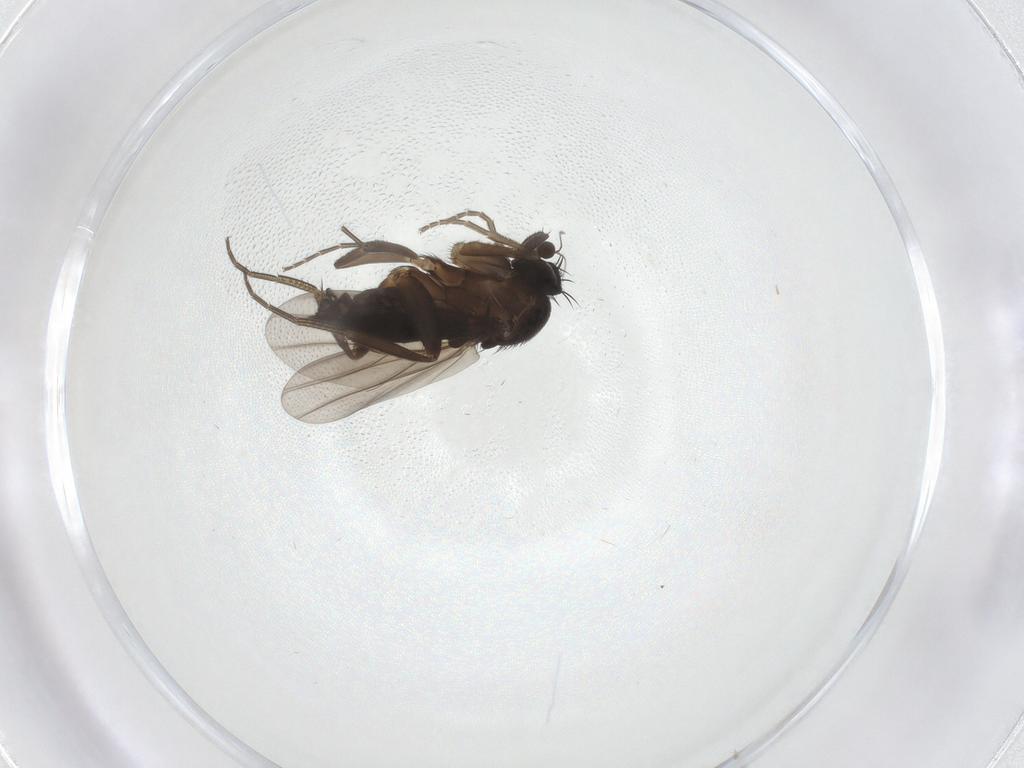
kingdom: Animalia
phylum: Arthropoda
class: Insecta
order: Diptera
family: Phoridae
